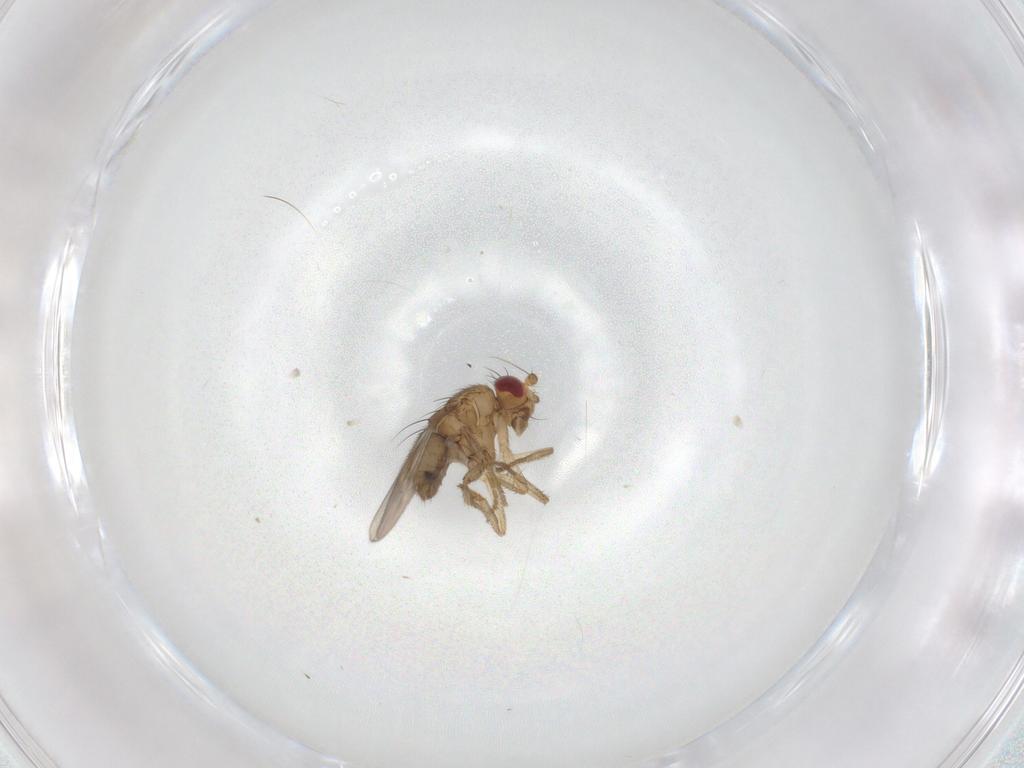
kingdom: Animalia
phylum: Arthropoda
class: Insecta
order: Diptera
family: Sphaeroceridae
